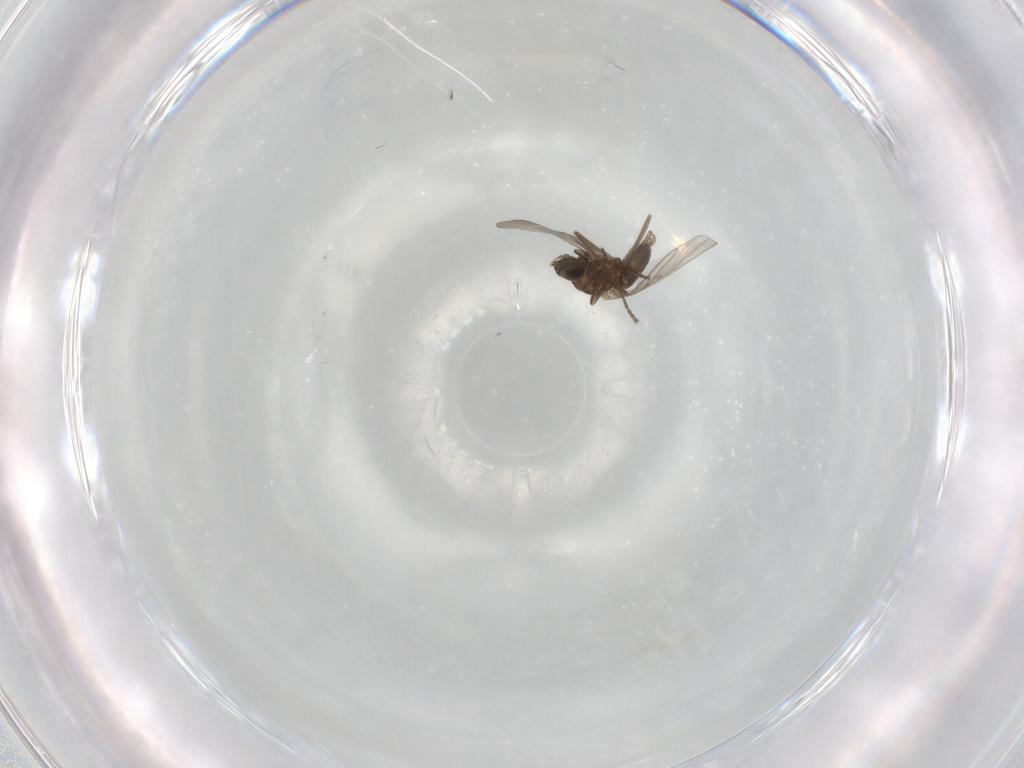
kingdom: Animalia
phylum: Arthropoda
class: Insecta
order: Diptera
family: Cecidomyiidae
